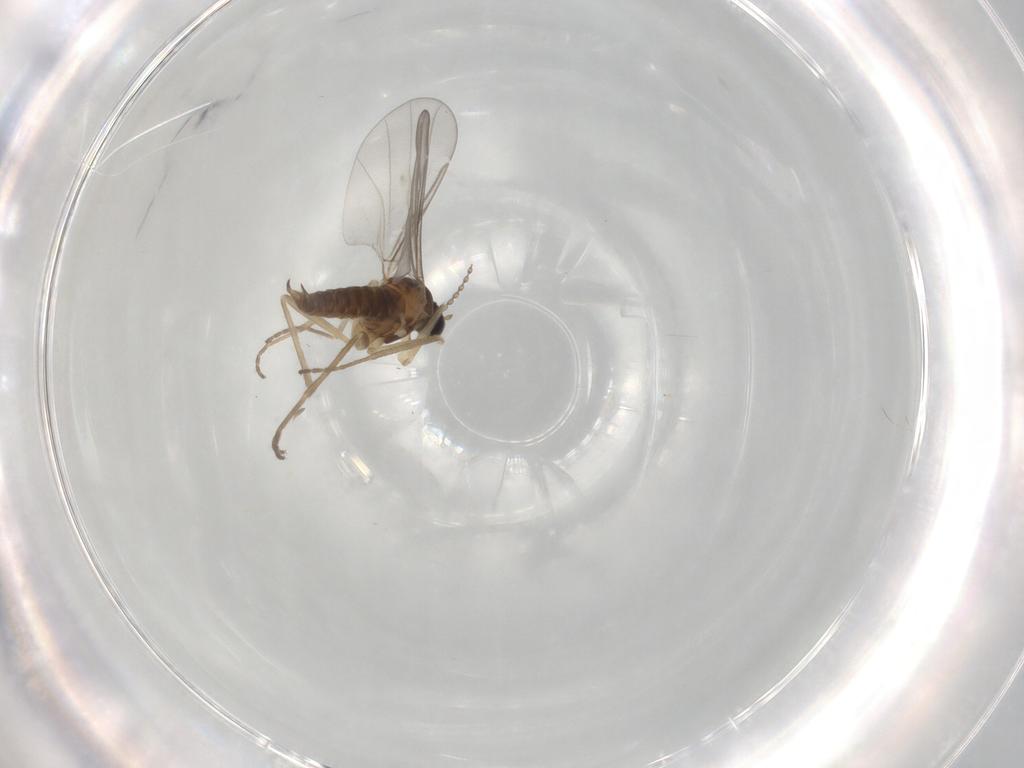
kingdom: Animalia
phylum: Arthropoda
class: Insecta
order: Diptera
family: Cecidomyiidae
